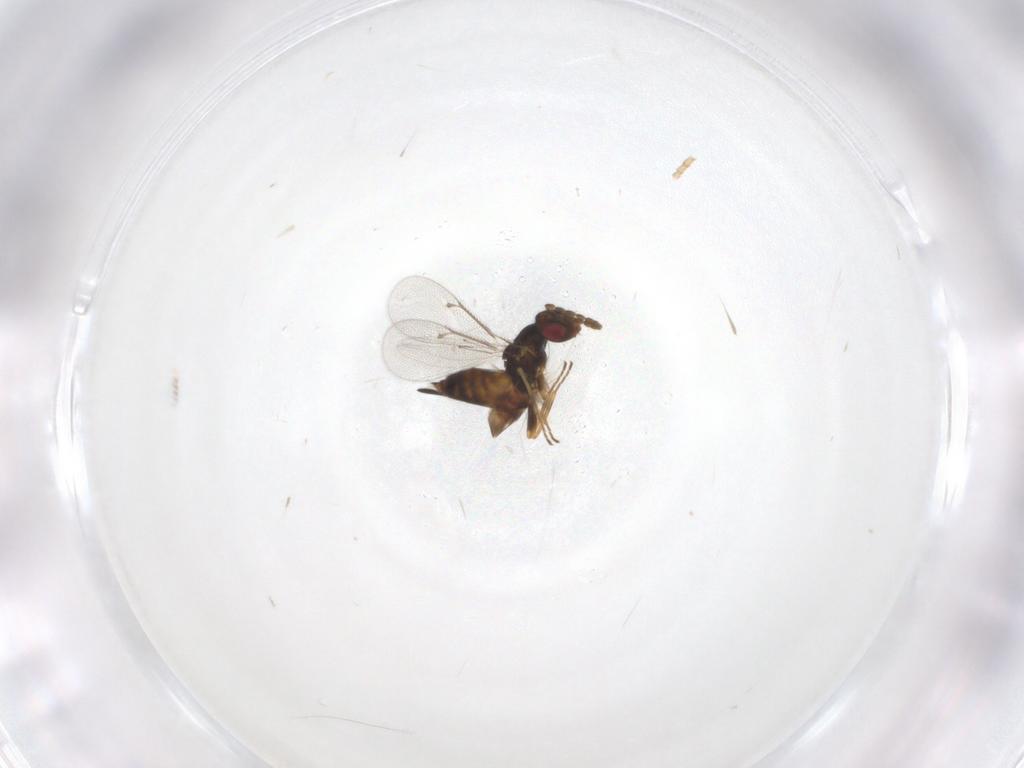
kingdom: Animalia
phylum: Arthropoda
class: Insecta
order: Hymenoptera
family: Eulophidae
